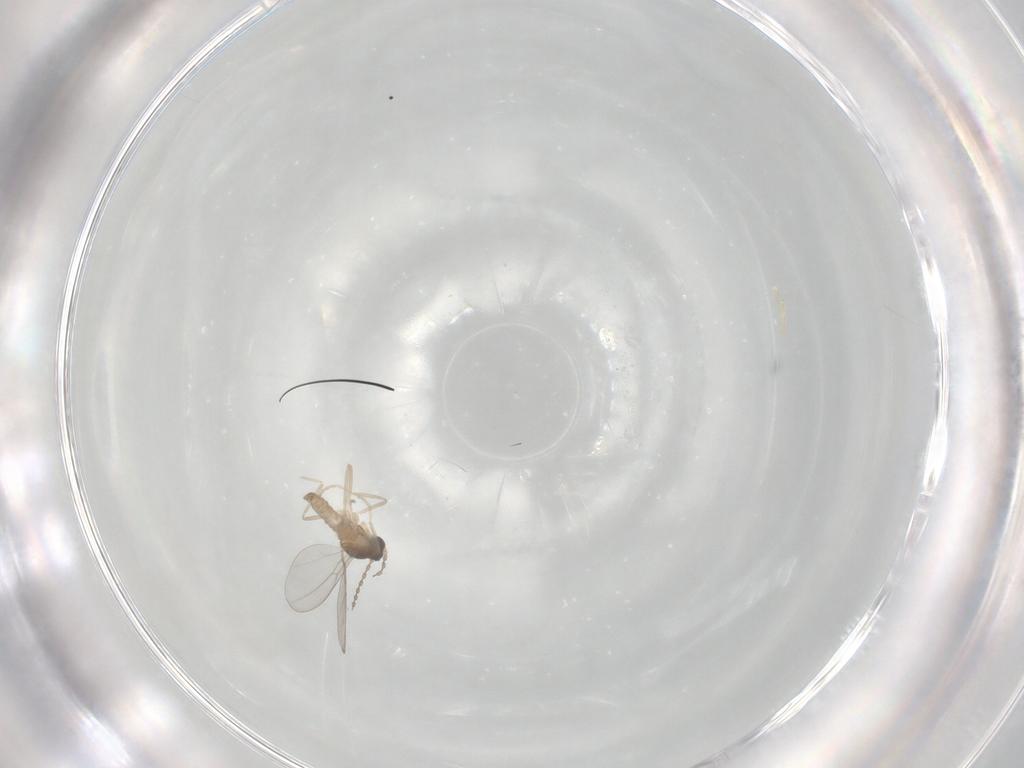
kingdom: Animalia
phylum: Arthropoda
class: Insecta
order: Diptera
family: Cecidomyiidae
